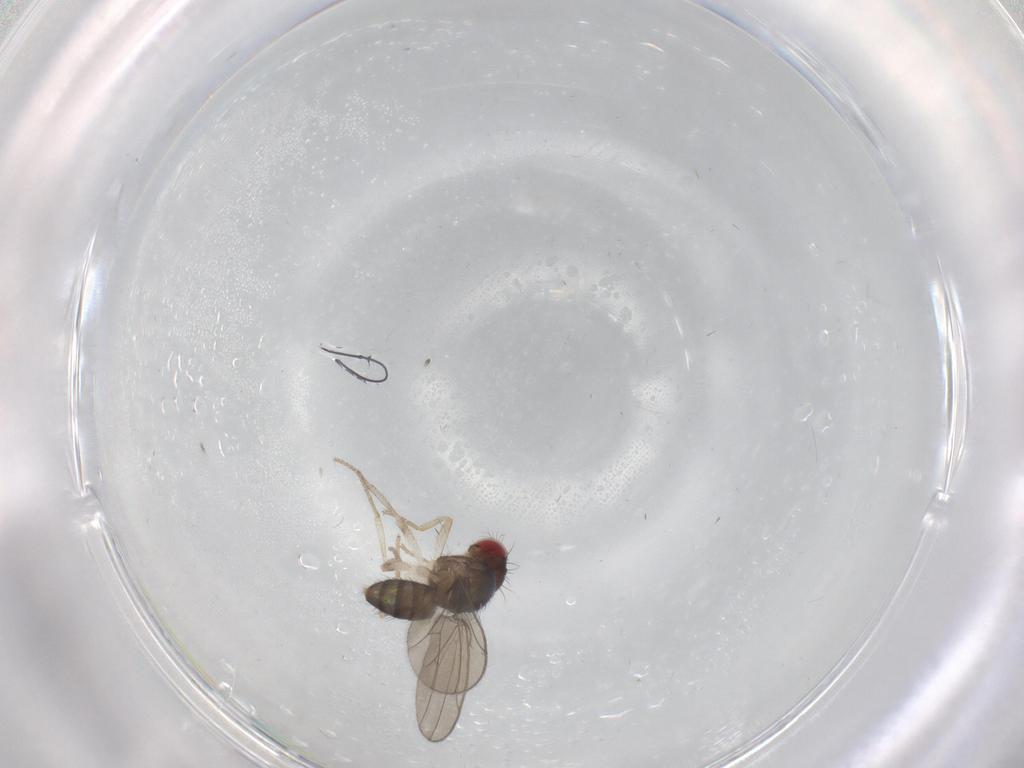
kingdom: Animalia
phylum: Arthropoda
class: Insecta
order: Diptera
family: Drosophilidae
